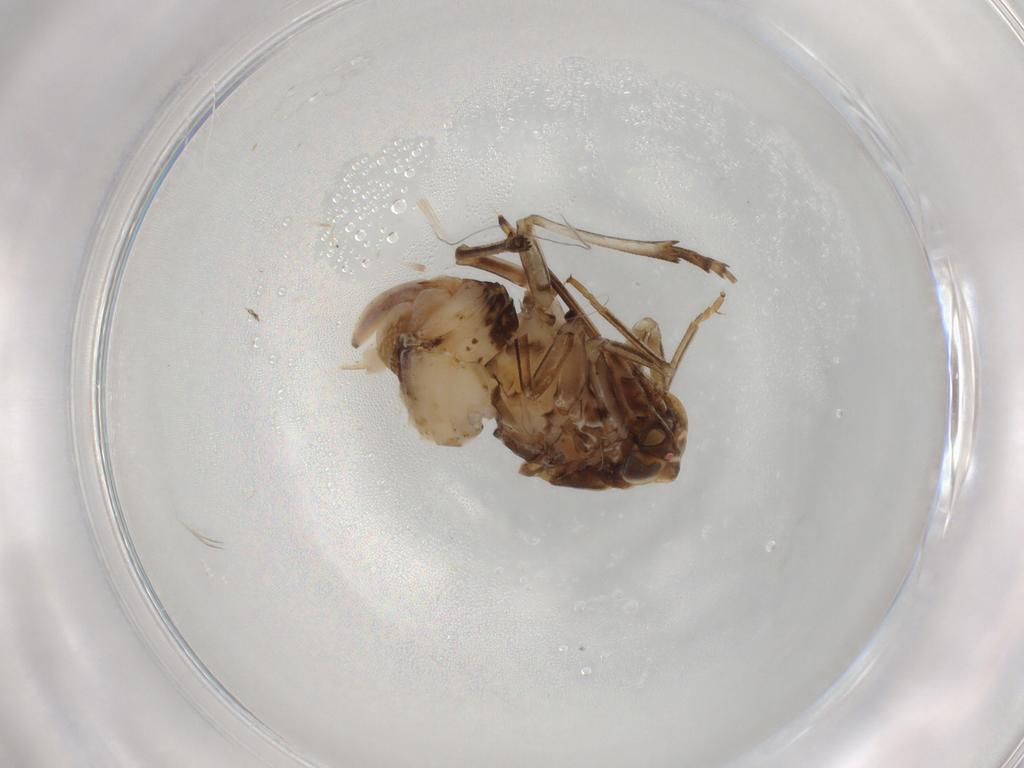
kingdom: Animalia
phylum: Arthropoda
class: Insecta
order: Hemiptera
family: Cixiidae
